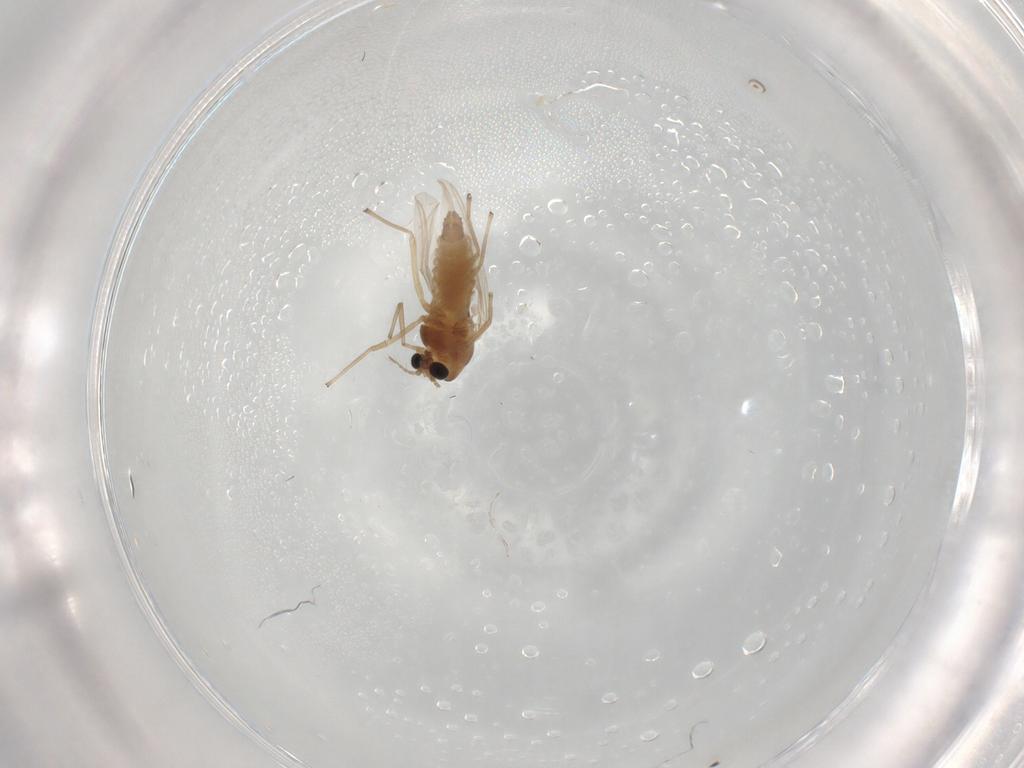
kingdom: Animalia
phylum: Arthropoda
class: Insecta
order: Diptera
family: Chironomidae
